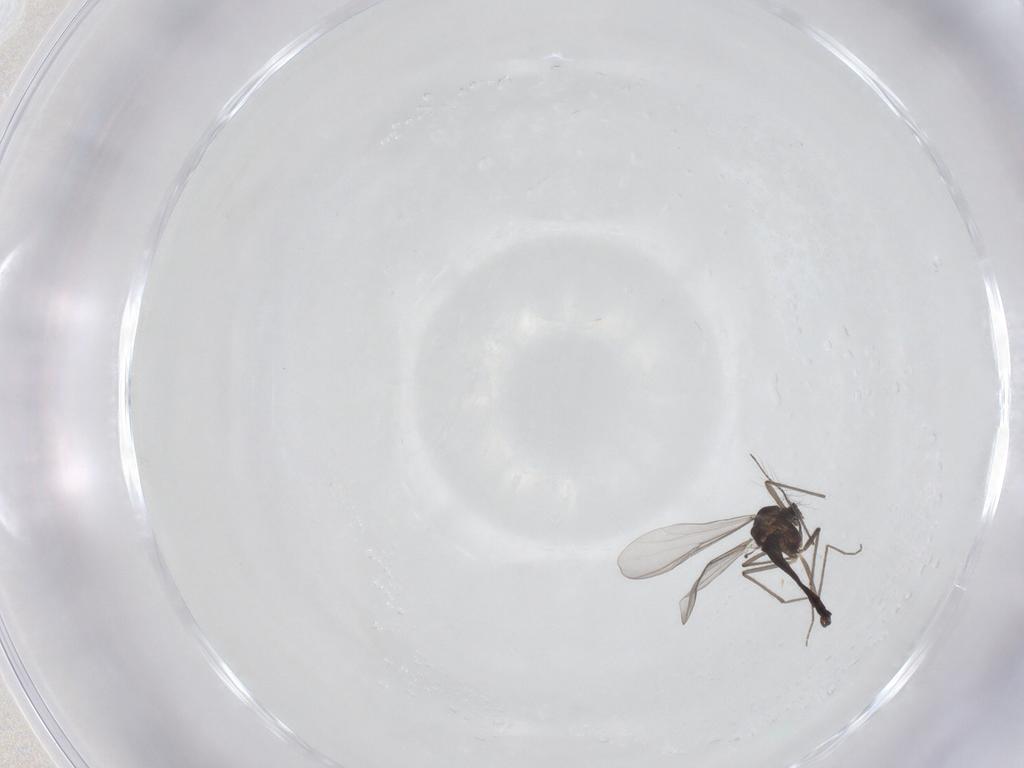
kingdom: Animalia
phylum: Arthropoda
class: Insecta
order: Diptera
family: Chironomidae
